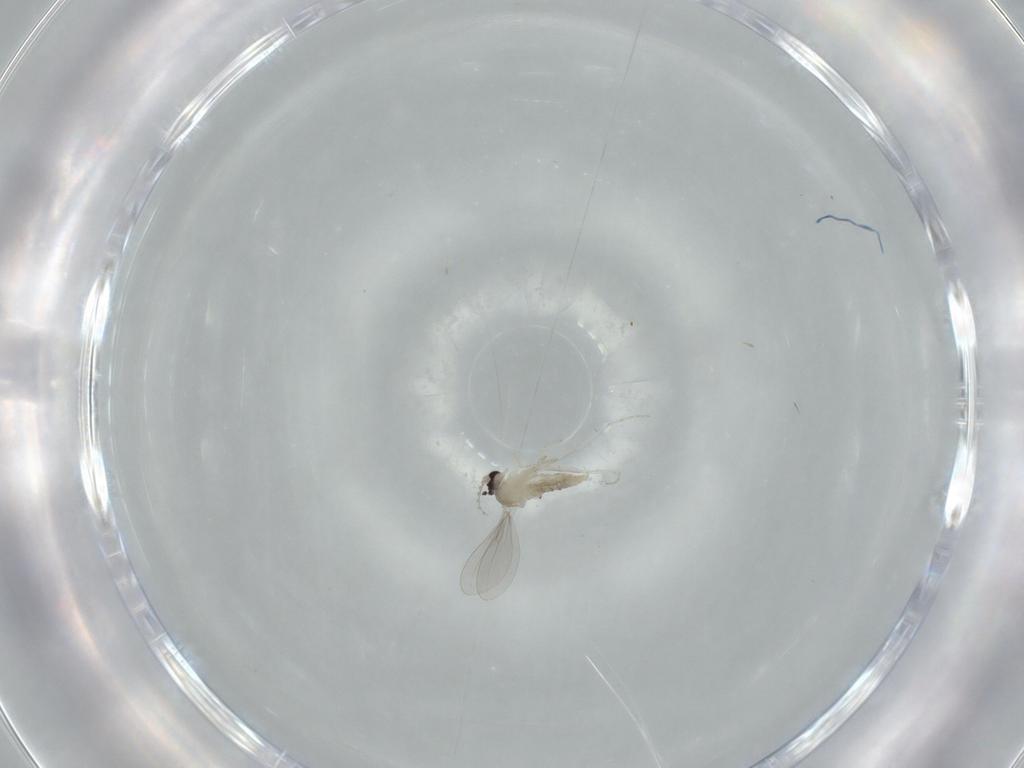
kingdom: Animalia
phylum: Arthropoda
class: Insecta
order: Diptera
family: Cecidomyiidae
